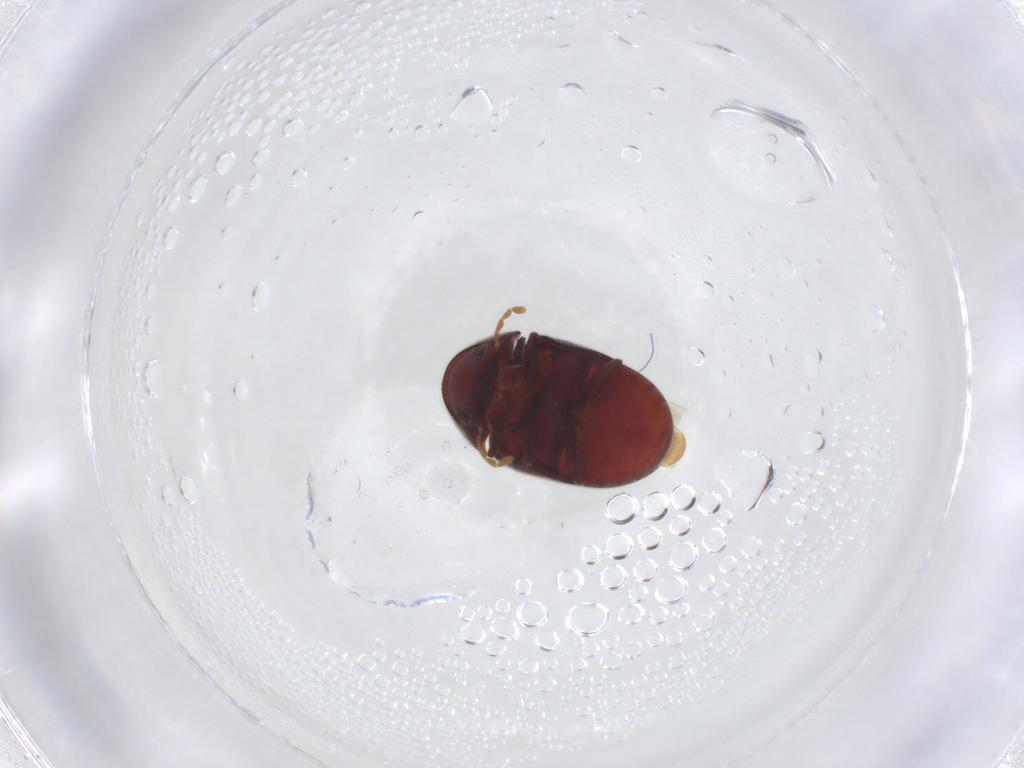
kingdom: Animalia
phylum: Arthropoda
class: Insecta
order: Coleoptera
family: Ptinidae
